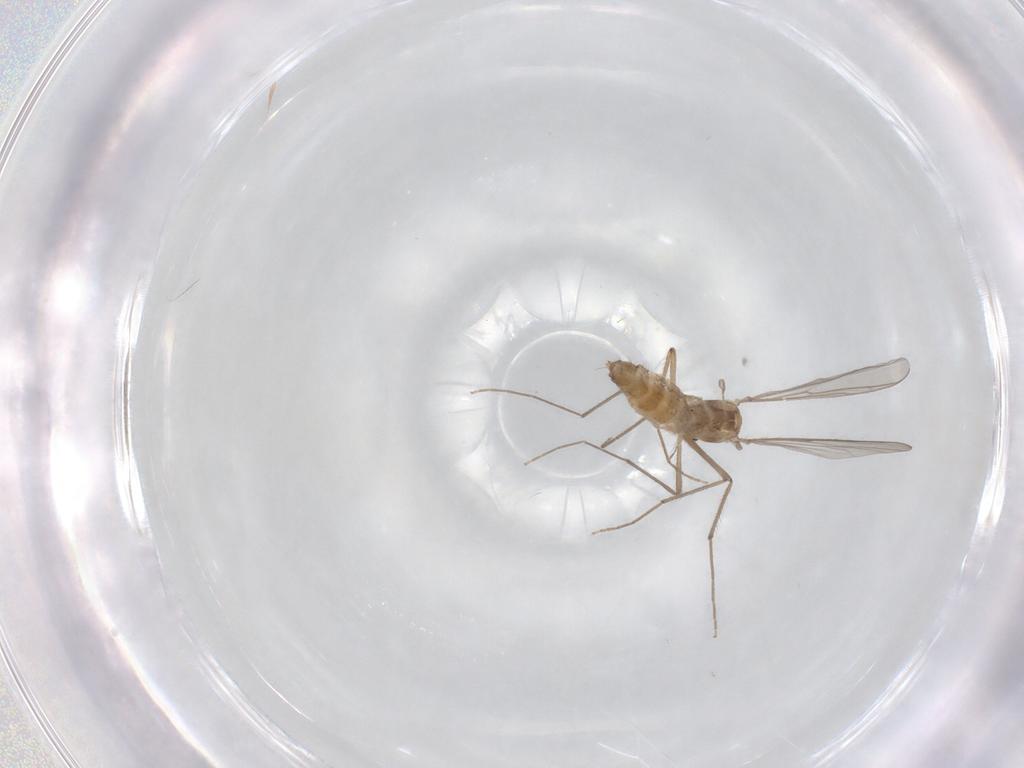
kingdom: Animalia
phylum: Arthropoda
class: Insecta
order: Diptera
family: Chironomidae
